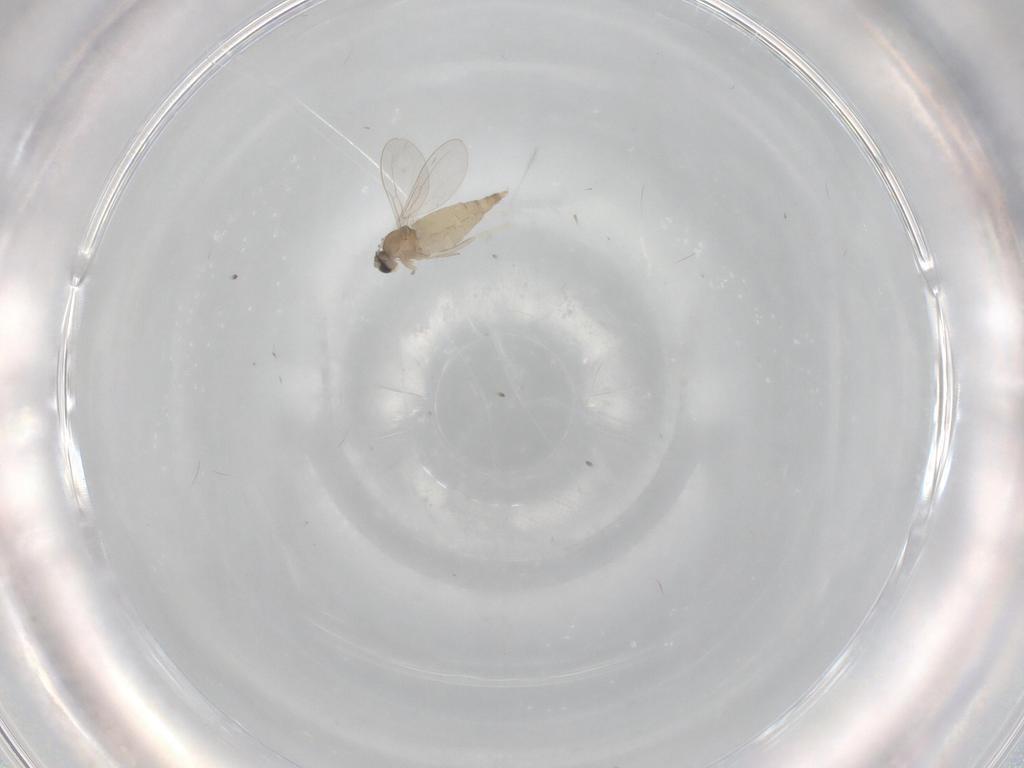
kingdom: Animalia
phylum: Arthropoda
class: Insecta
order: Diptera
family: Cecidomyiidae
